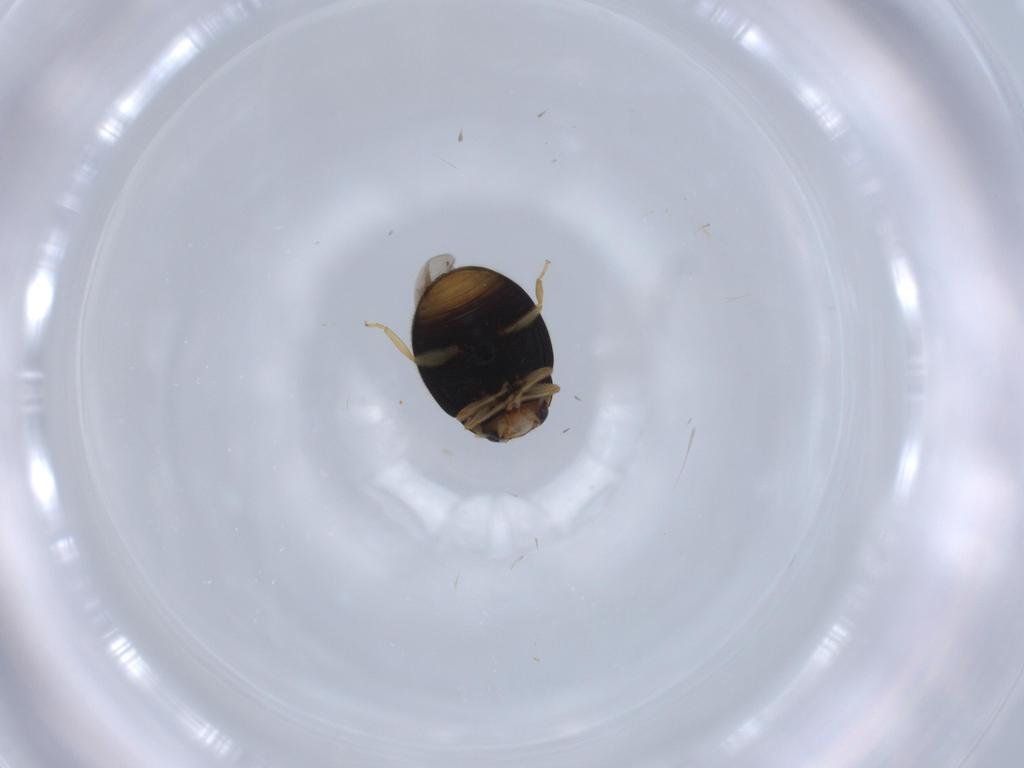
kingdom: Animalia
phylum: Arthropoda
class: Insecta
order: Coleoptera
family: Coccinellidae
